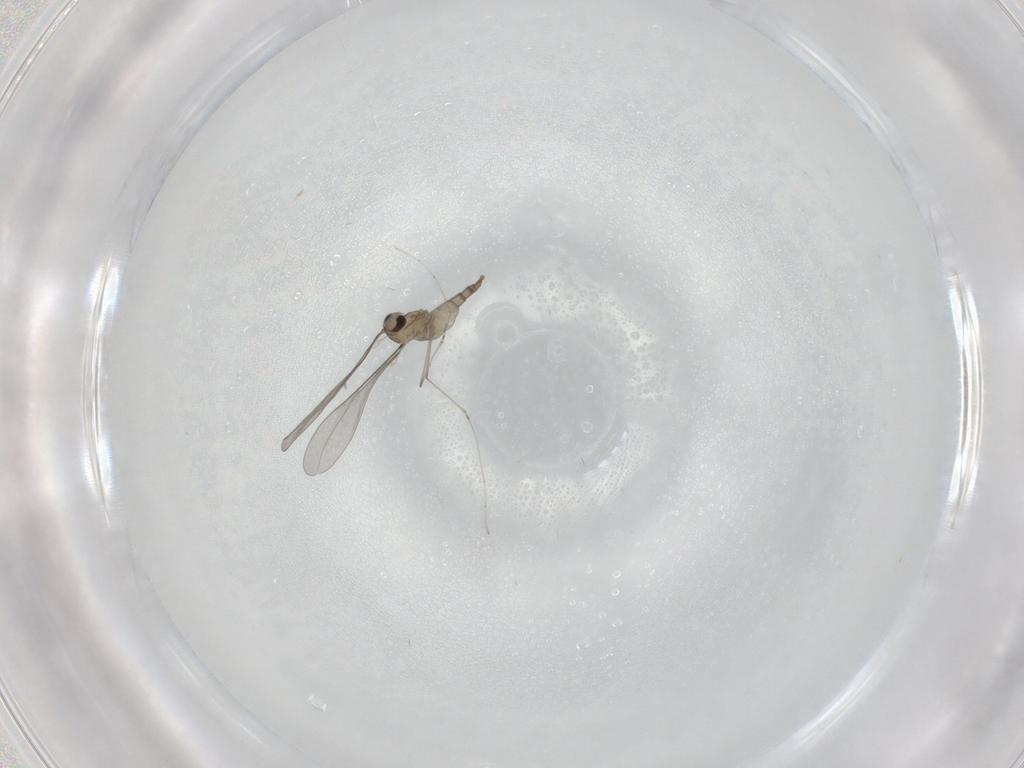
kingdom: Animalia
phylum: Arthropoda
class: Insecta
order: Diptera
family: Cecidomyiidae
